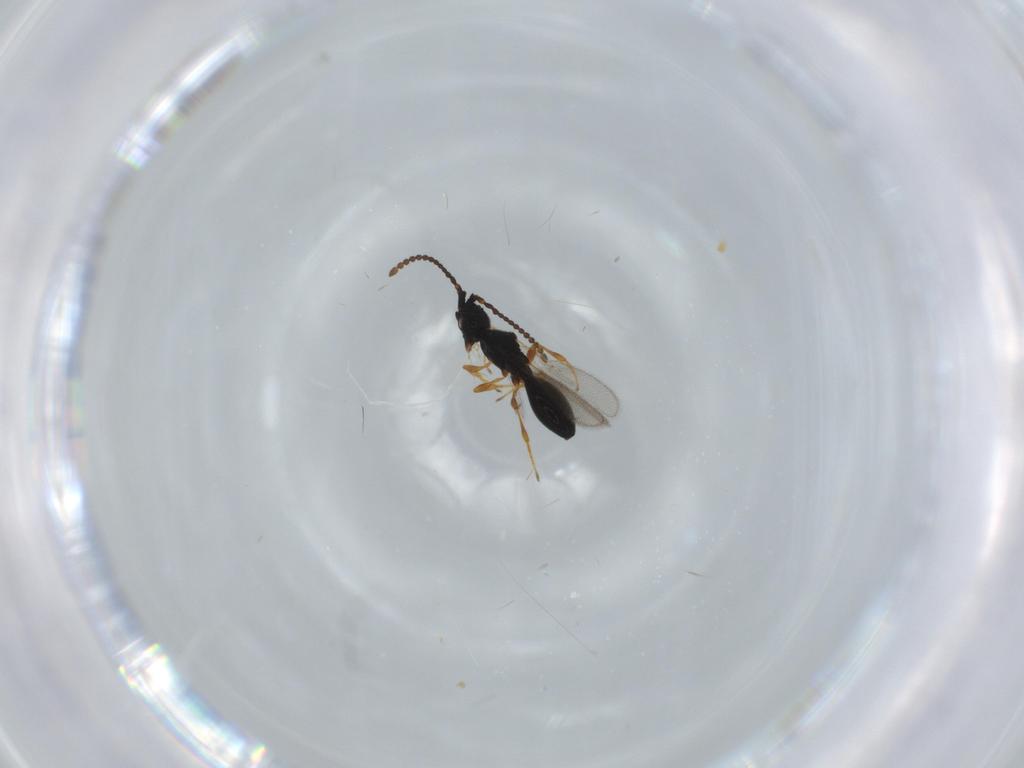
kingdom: Animalia
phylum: Arthropoda
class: Insecta
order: Hymenoptera
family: Diapriidae
